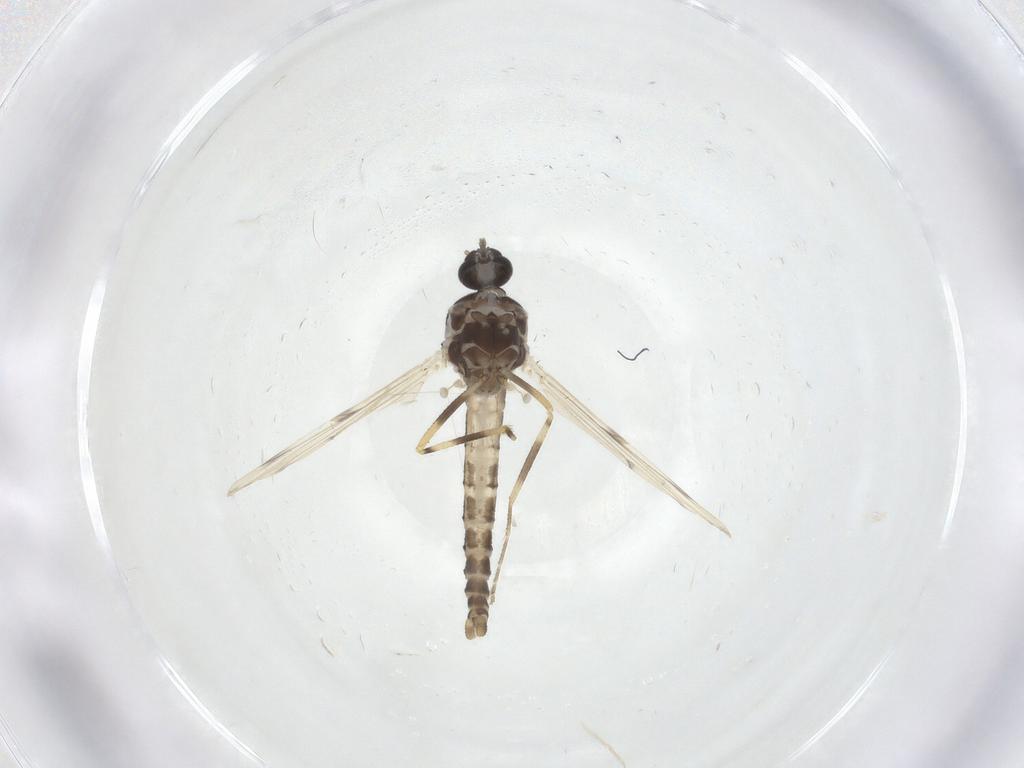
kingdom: Animalia
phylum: Arthropoda
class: Insecta
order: Diptera
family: Ceratopogonidae
